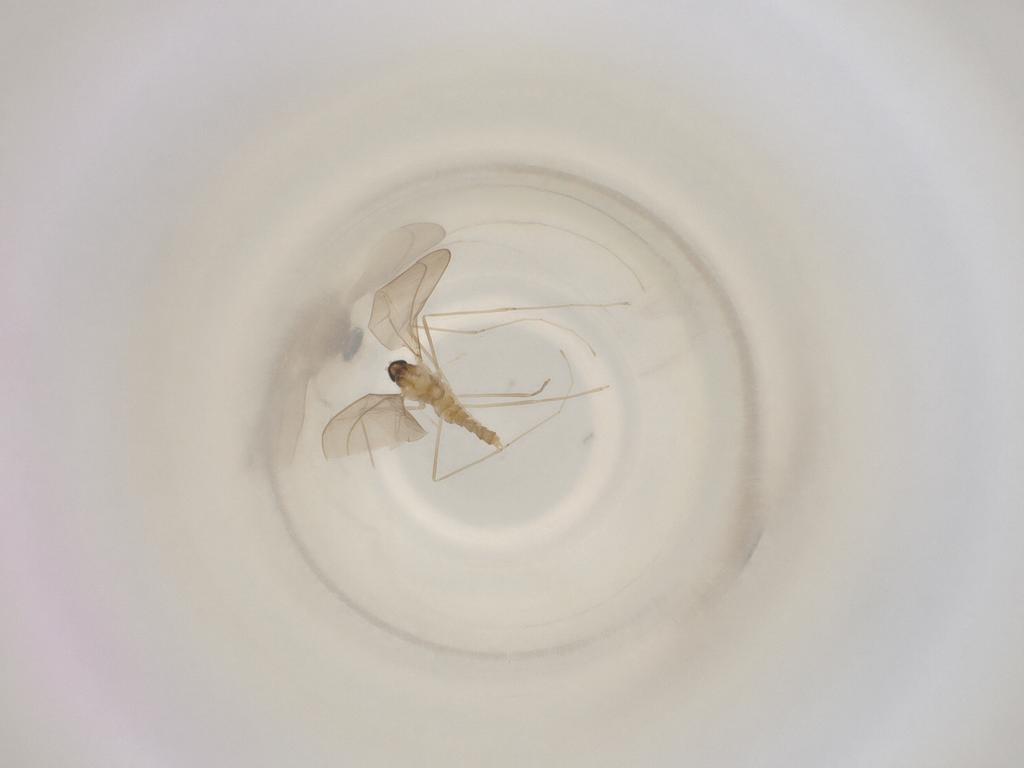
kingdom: Animalia
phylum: Arthropoda
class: Insecta
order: Diptera
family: Cecidomyiidae
